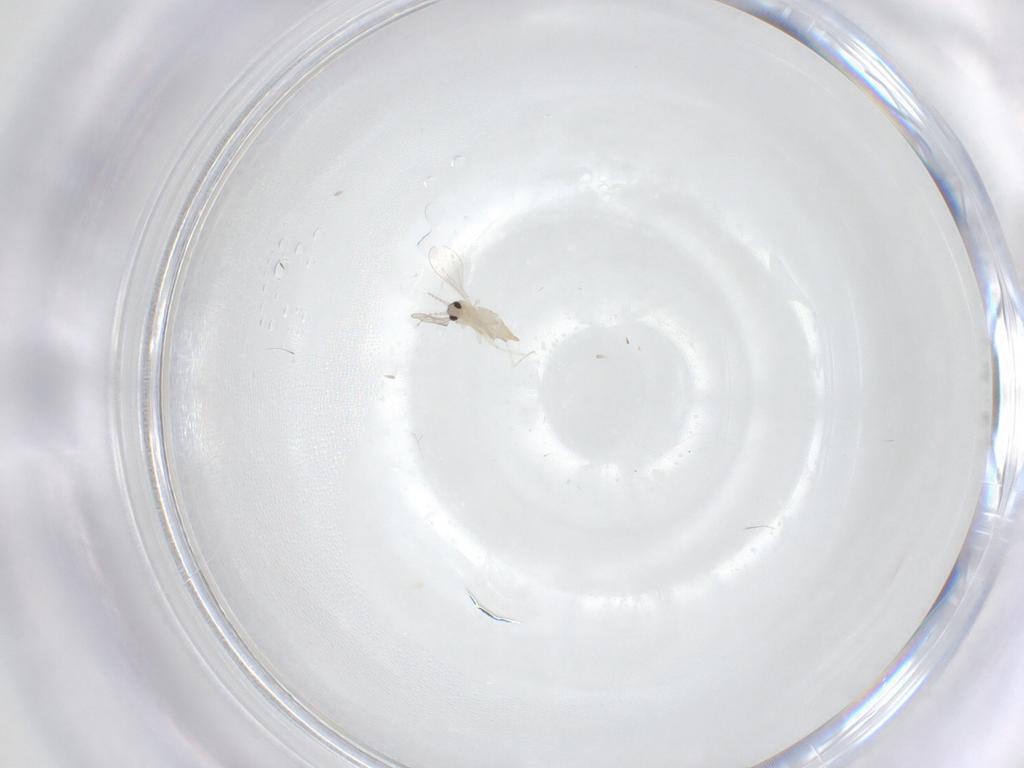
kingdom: Animalia
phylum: Arthropoda
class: Insecta
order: Diptera
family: Cecidomyiidae
